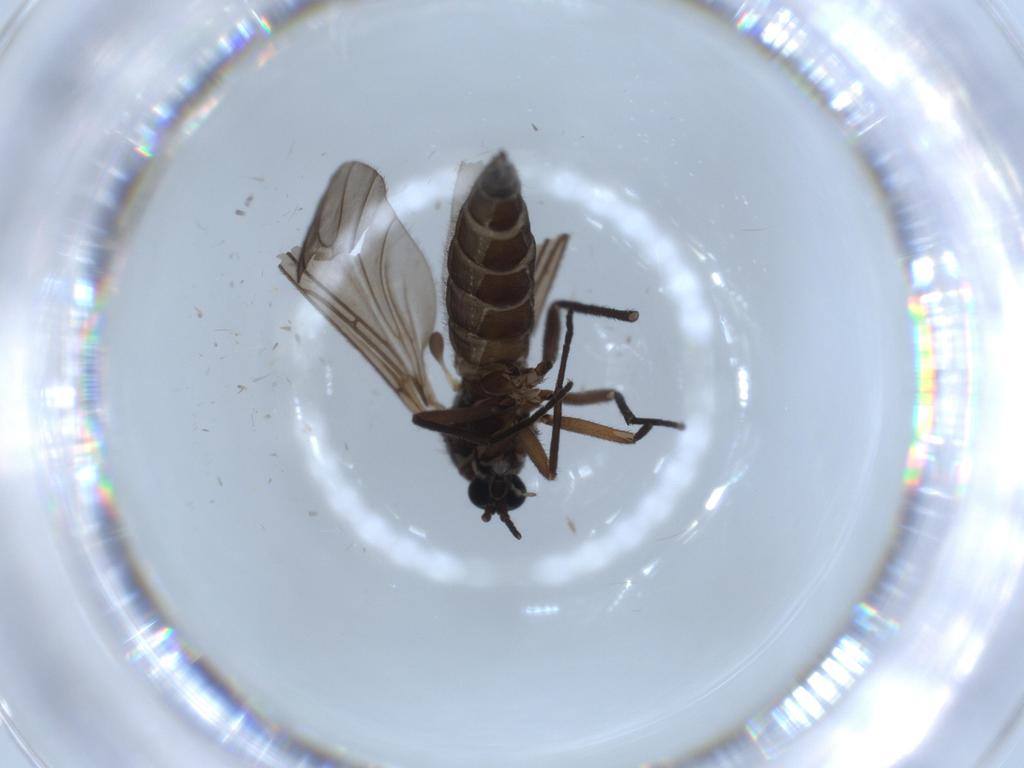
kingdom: Animalia
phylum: Arthropoda
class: Insecta
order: Diptera
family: Sciaridae
